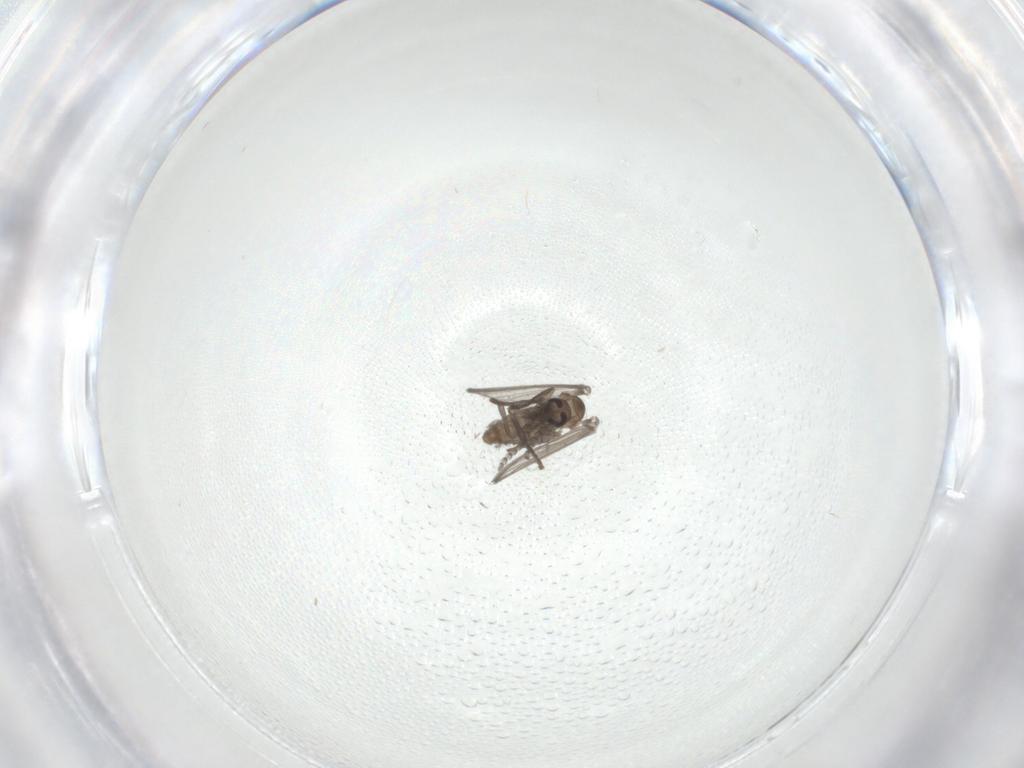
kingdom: Animalia
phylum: Arthropoda
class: Insecta
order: Diptera
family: Psychodidae
